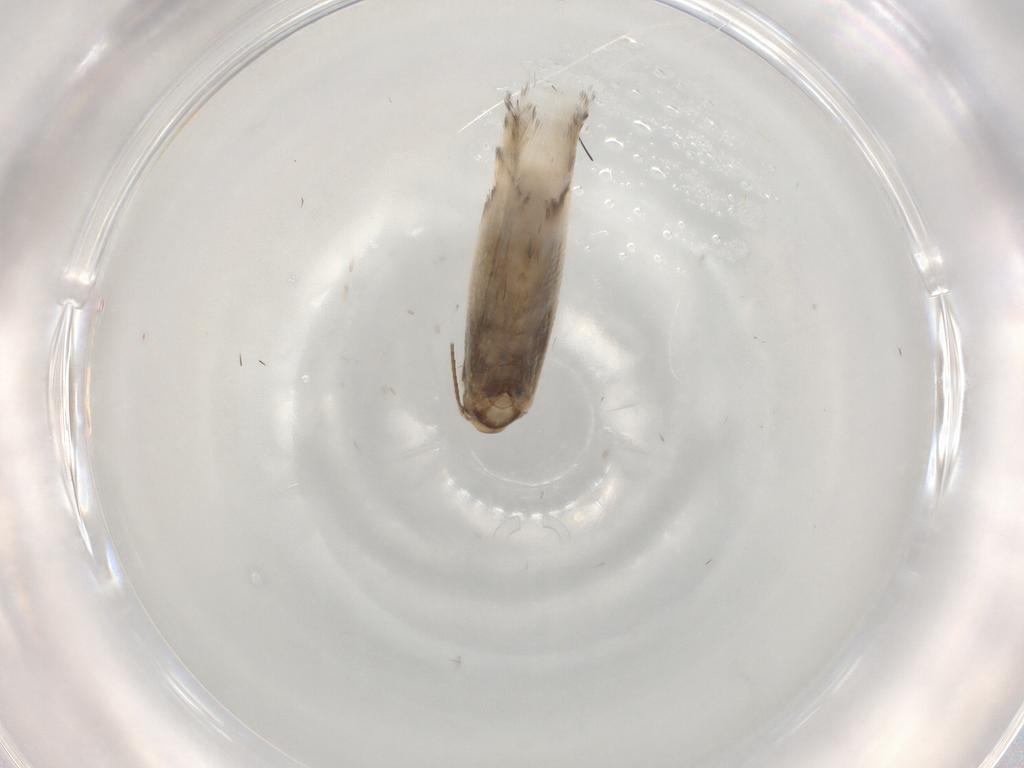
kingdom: Animalia
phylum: Arthropoda
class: Insecta
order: Lepidoptera
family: Gracillariidae
